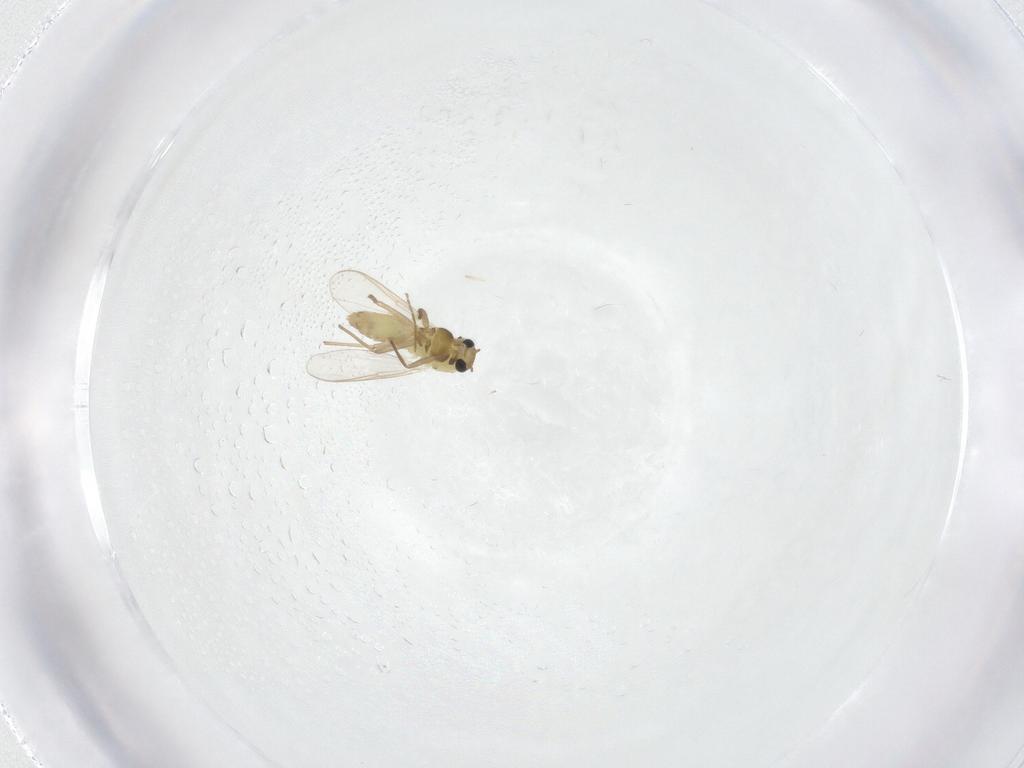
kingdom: Animalia
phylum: Arthropoda
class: Insecta
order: Diptera
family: Chironomidae
